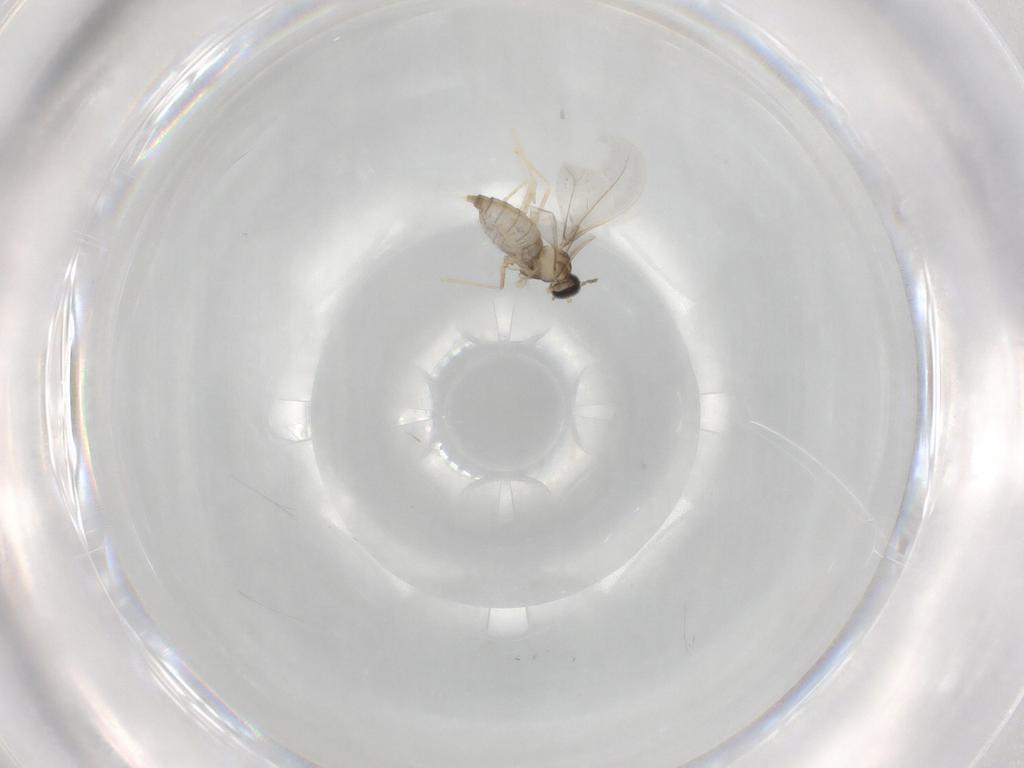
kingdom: Animalia
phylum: Arthropoda
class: Insecta
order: Diptera
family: Cecidomyiidae
